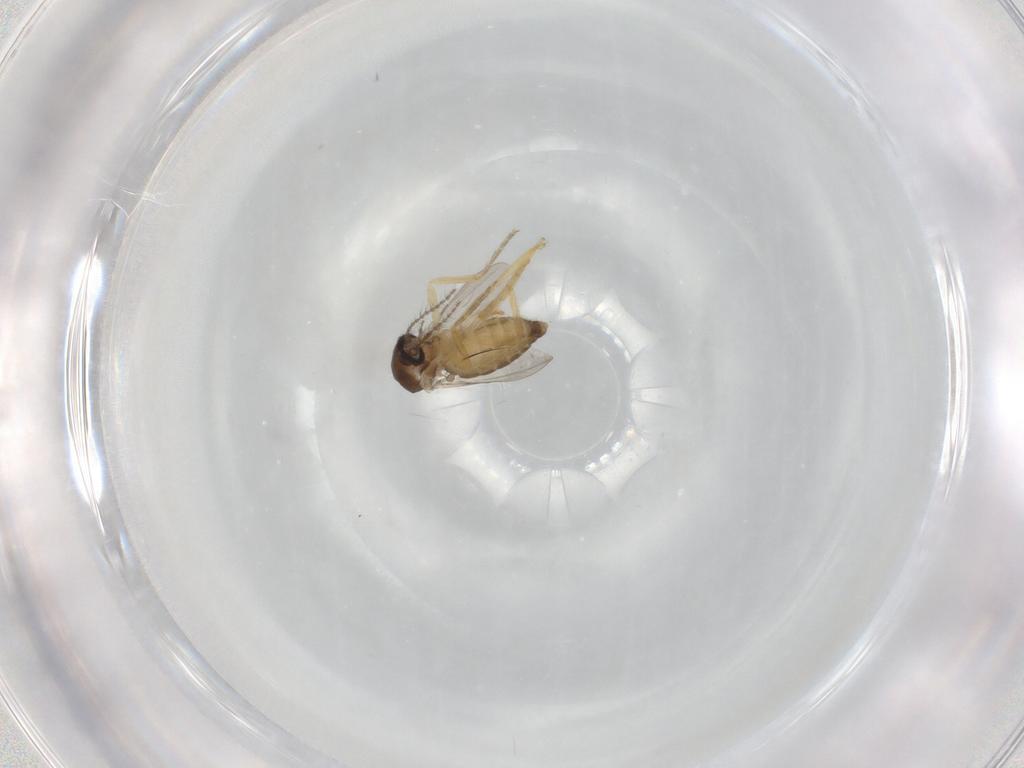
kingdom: Animalia
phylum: Arthropoda
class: Insecta
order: Diptera
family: Ceratopogonidae
